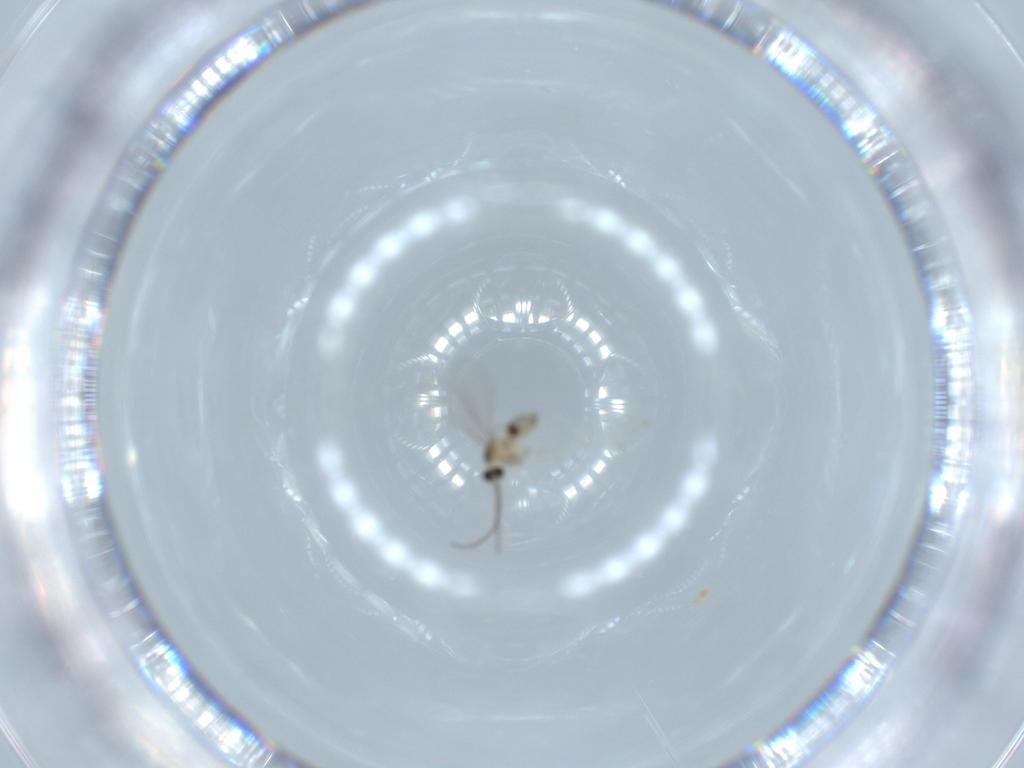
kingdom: Animalia
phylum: Arthropoda
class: Insecta
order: Diptera
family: Cecidomyiidae
